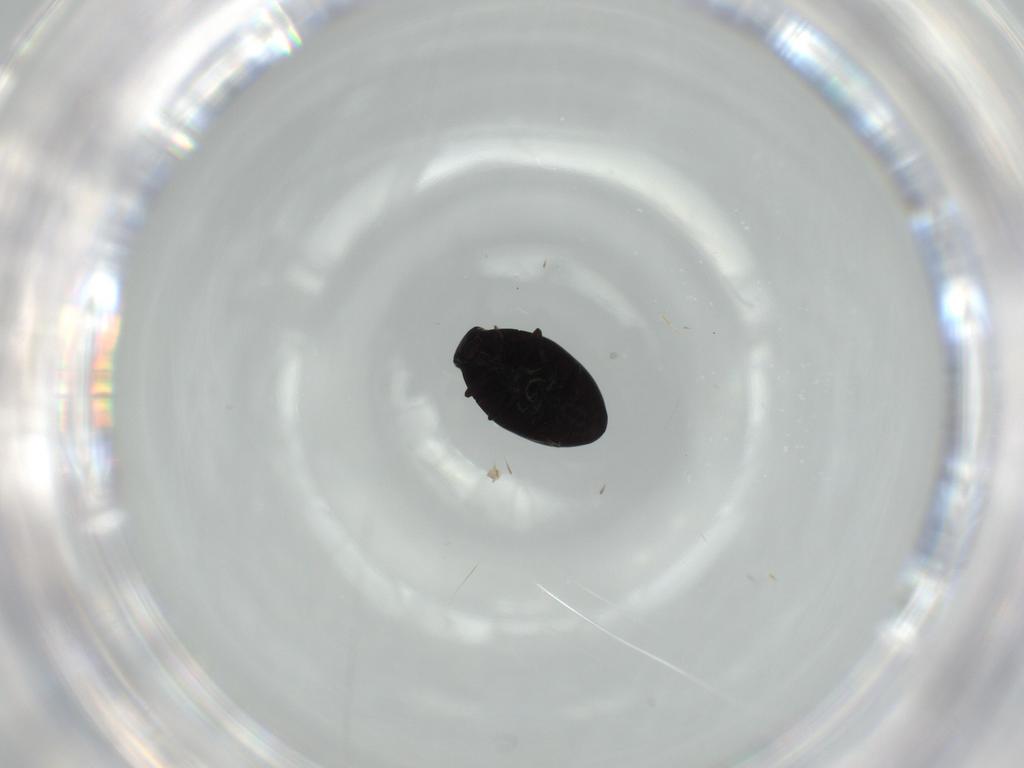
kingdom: Animalia
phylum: Arthropoda
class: Insecta
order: Coleoptera
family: Limnichidae
